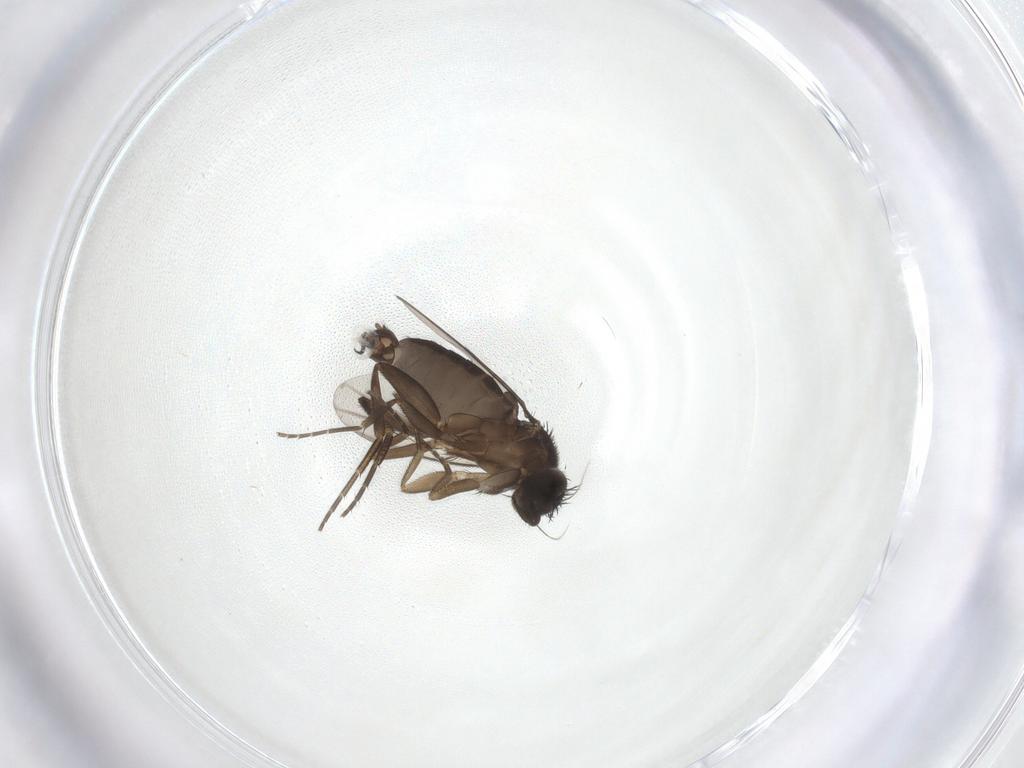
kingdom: Animalia
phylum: Arthropoda
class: Insecta
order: Diptera
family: Phoridae
